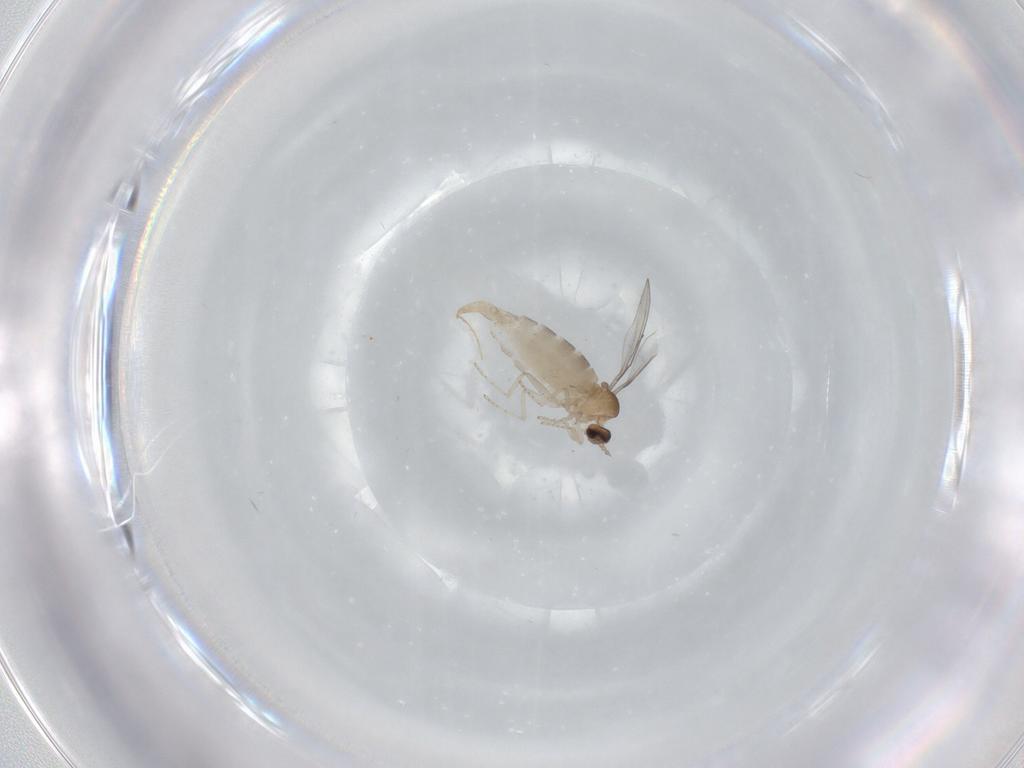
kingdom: Animalia
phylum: Arthropoda
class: Insecta
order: Diptera
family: Cecidomyiidae
